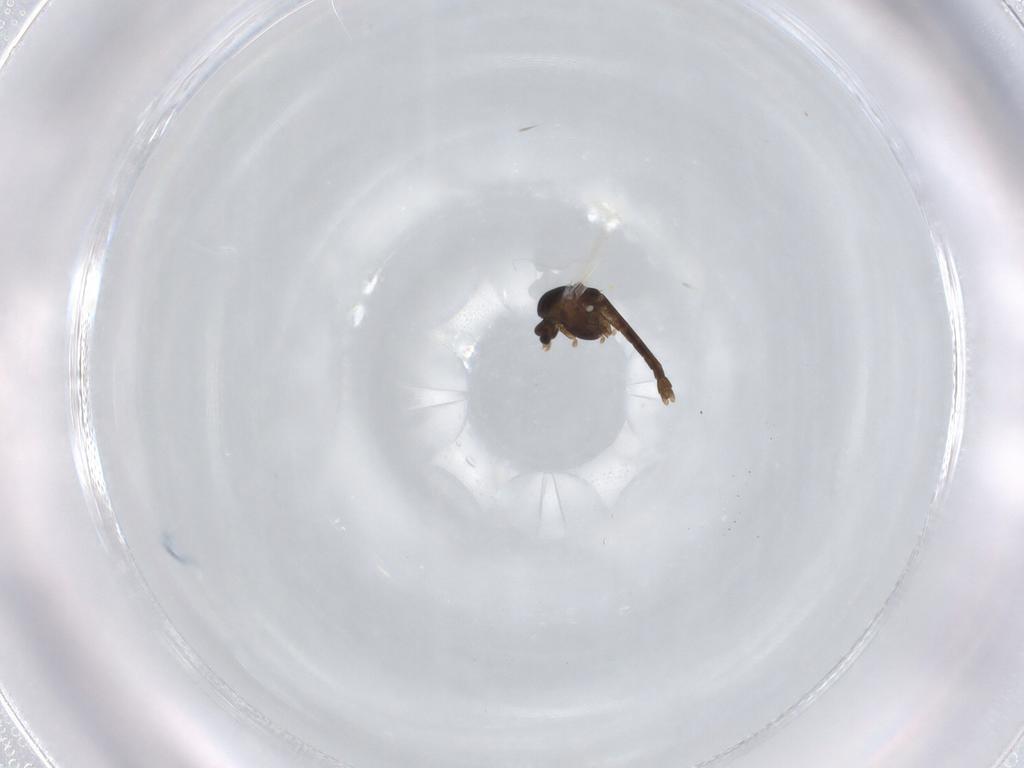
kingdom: Animalia
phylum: Arthropoda
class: Insecta
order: Diptera
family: Chironomidae
